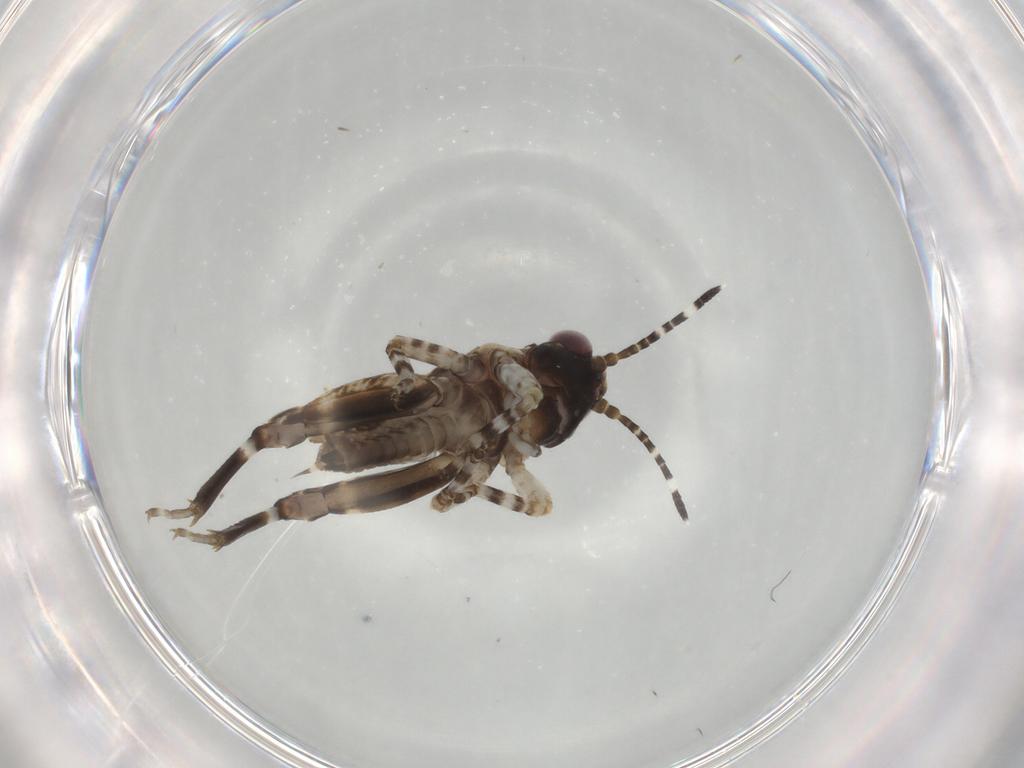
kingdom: Animalia
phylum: Arthropoda
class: Insecta
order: Orthoptera
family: Tetrigidae
